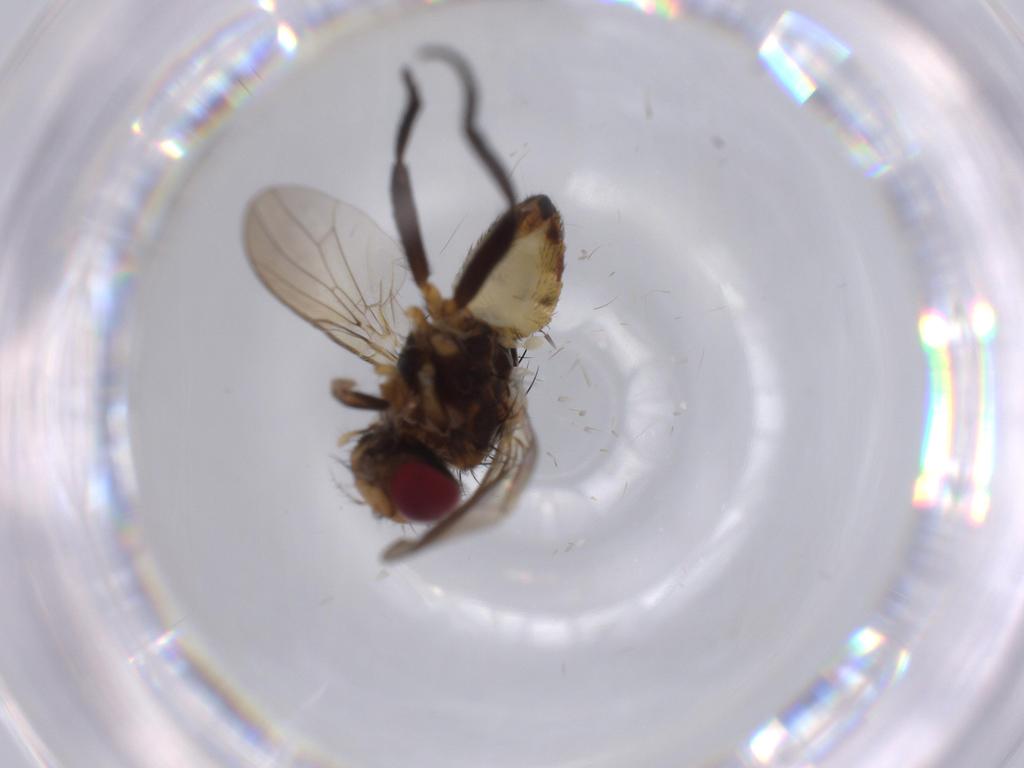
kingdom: Animalia
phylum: Arthropoda
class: Insecta
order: Diptera
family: Anthomyiidae
